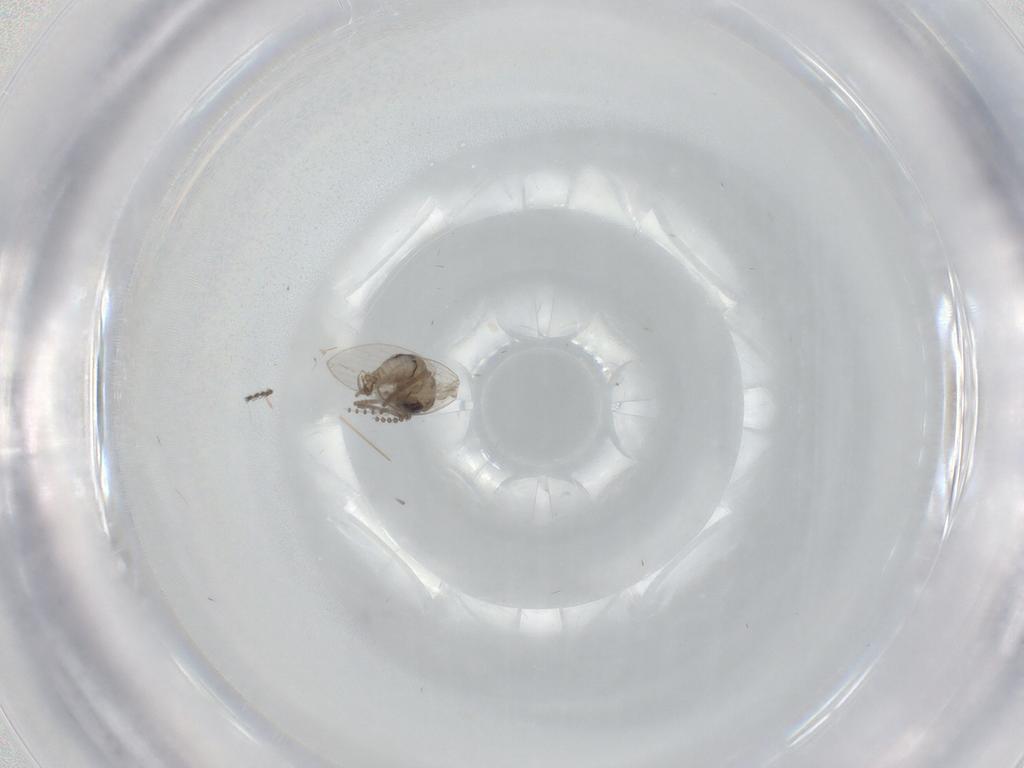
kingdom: Animalia
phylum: Arthropoda
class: Insecta
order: Diptera
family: Psychodidae
